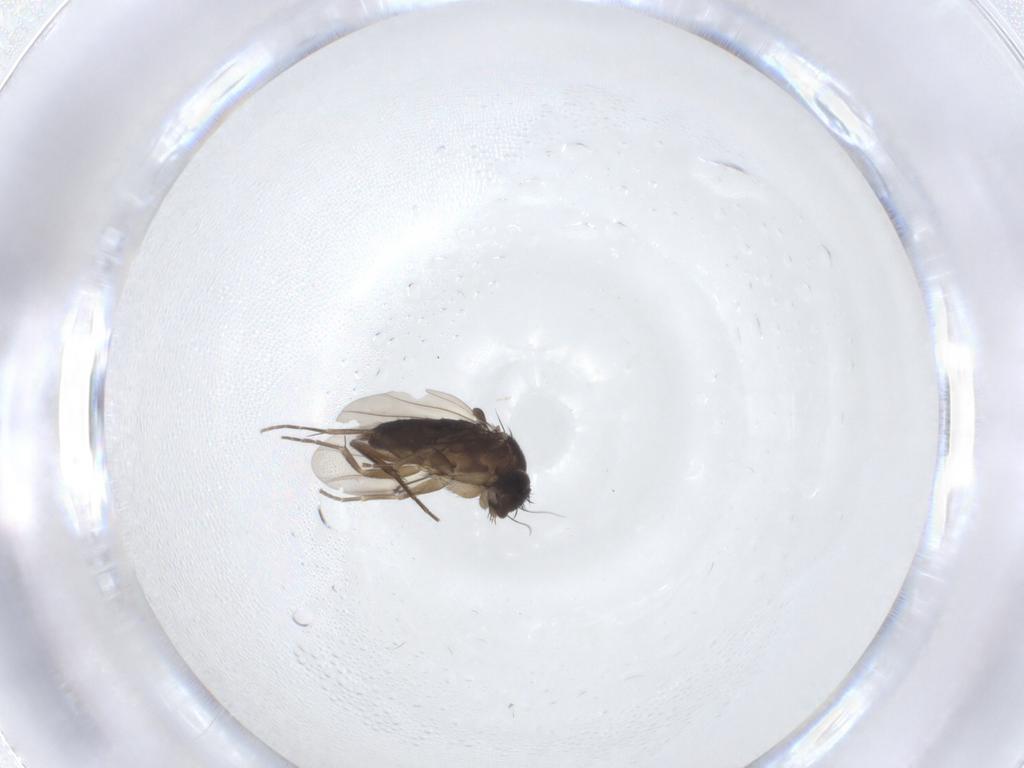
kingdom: Animalia
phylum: Arthropoda
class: Insecta
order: Diptera
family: Phoridae
